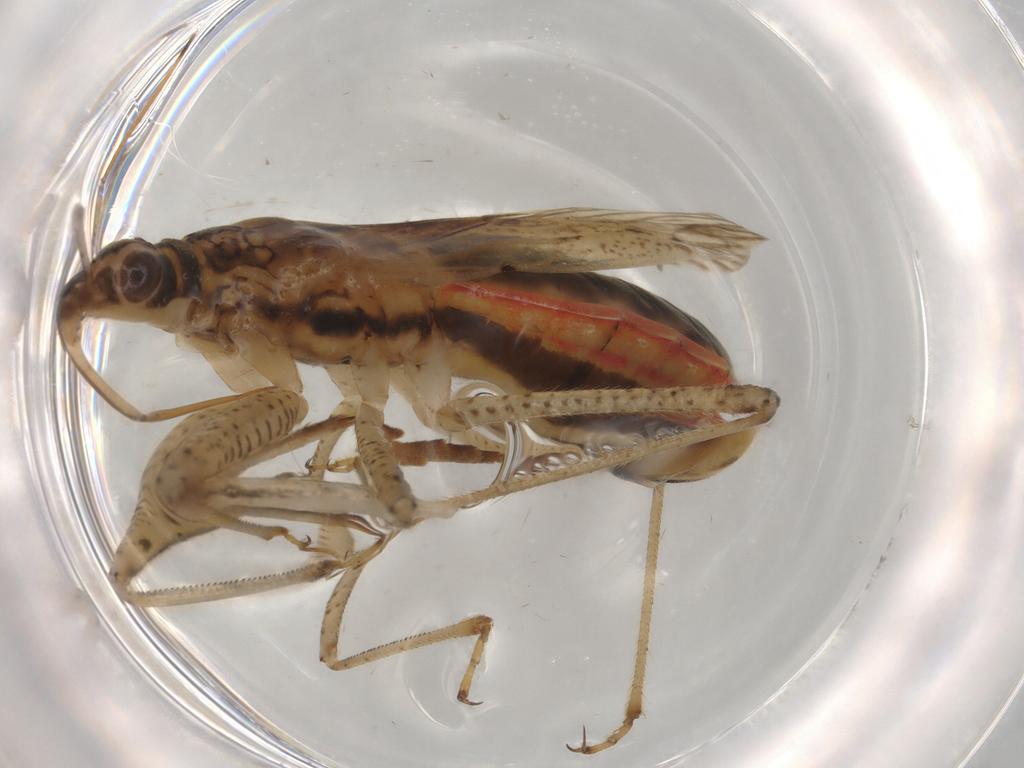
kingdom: Animalia
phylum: Arthropoda
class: Insecta
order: Hemiptera
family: Nabidae
